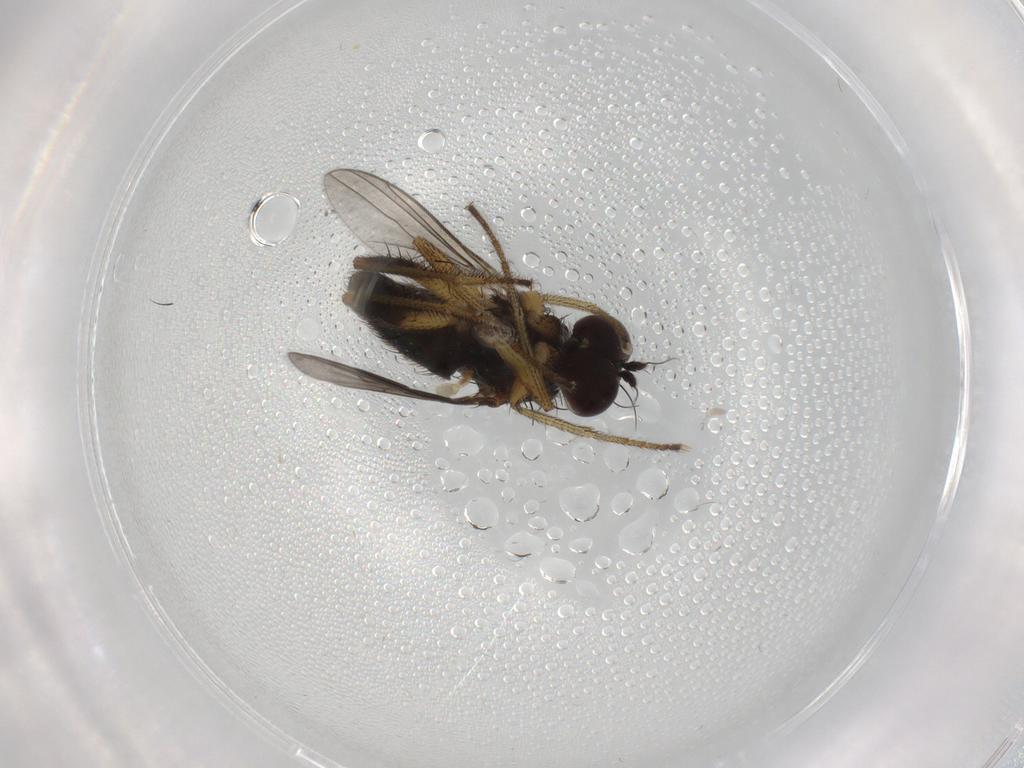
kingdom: Animalia
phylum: Arthropoda
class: Insecta
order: Diptera
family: Dolichopodidae
